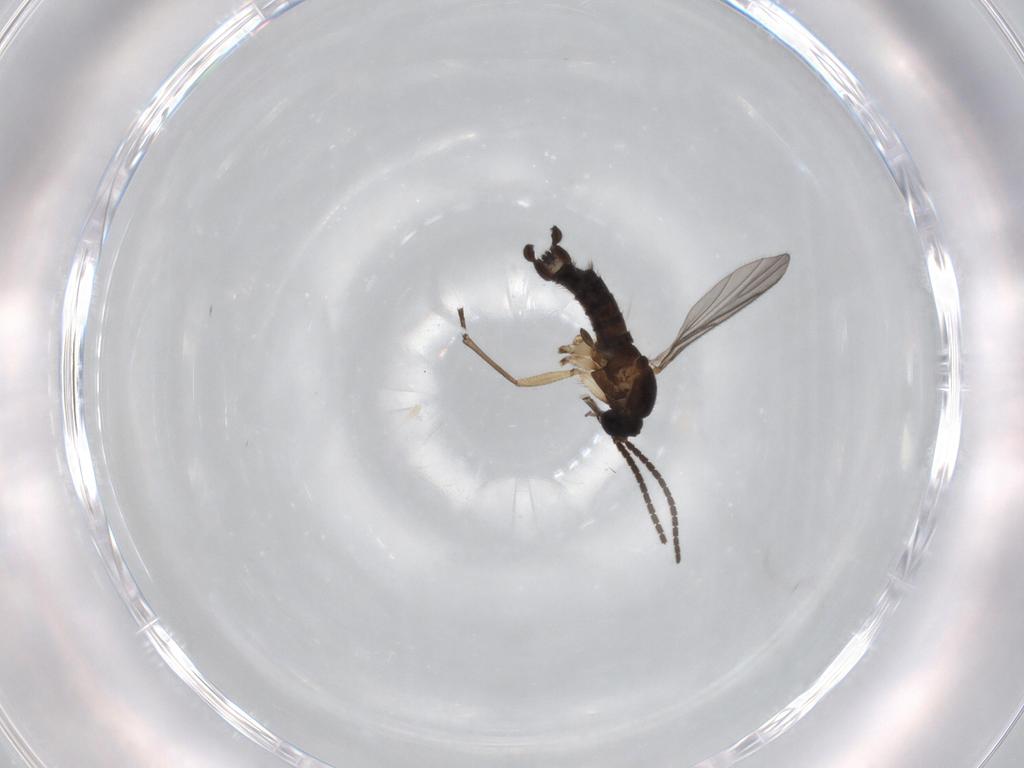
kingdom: Animalia
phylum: Arthropoda
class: Insecta
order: Diptera
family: Sciaridae
